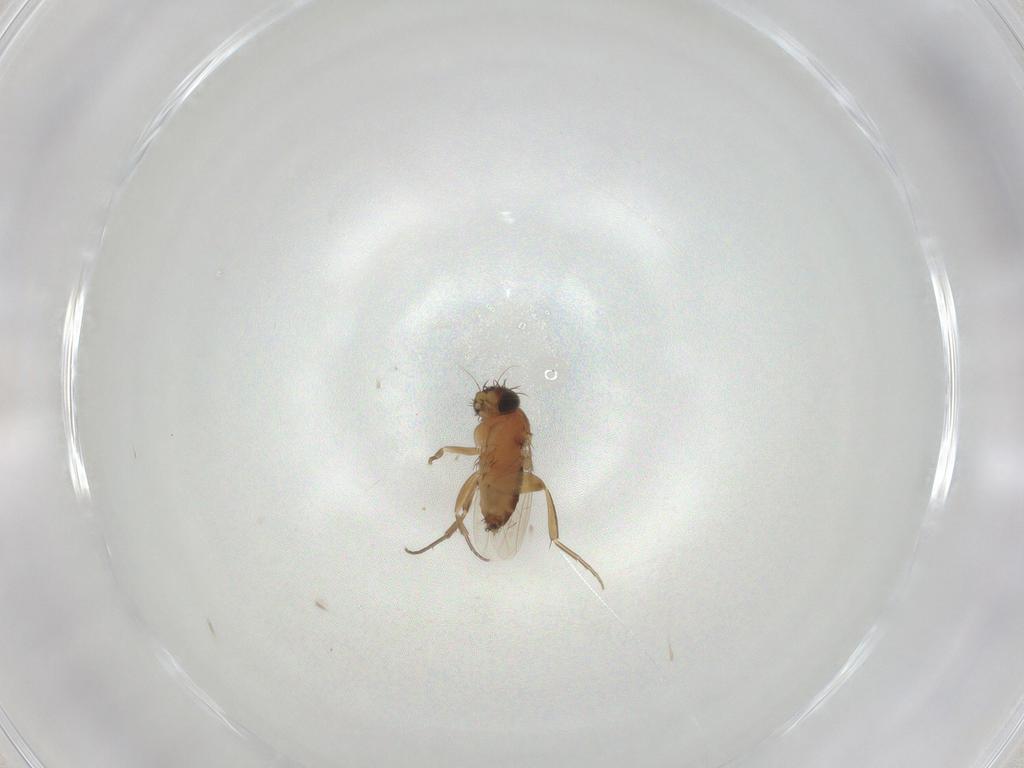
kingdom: Animalia
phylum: Arthropoda
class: Insecta
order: Diptera
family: Phoridae
